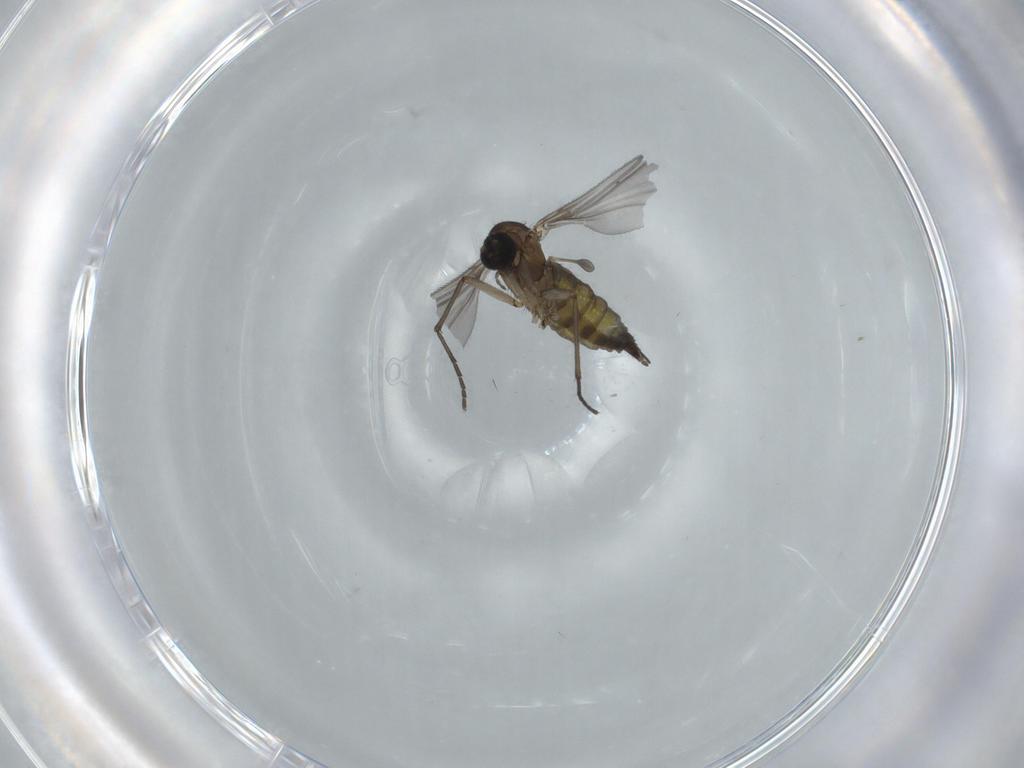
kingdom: Animalia
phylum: Arthropoda
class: Insecta
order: Diptera
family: Sciaridae
